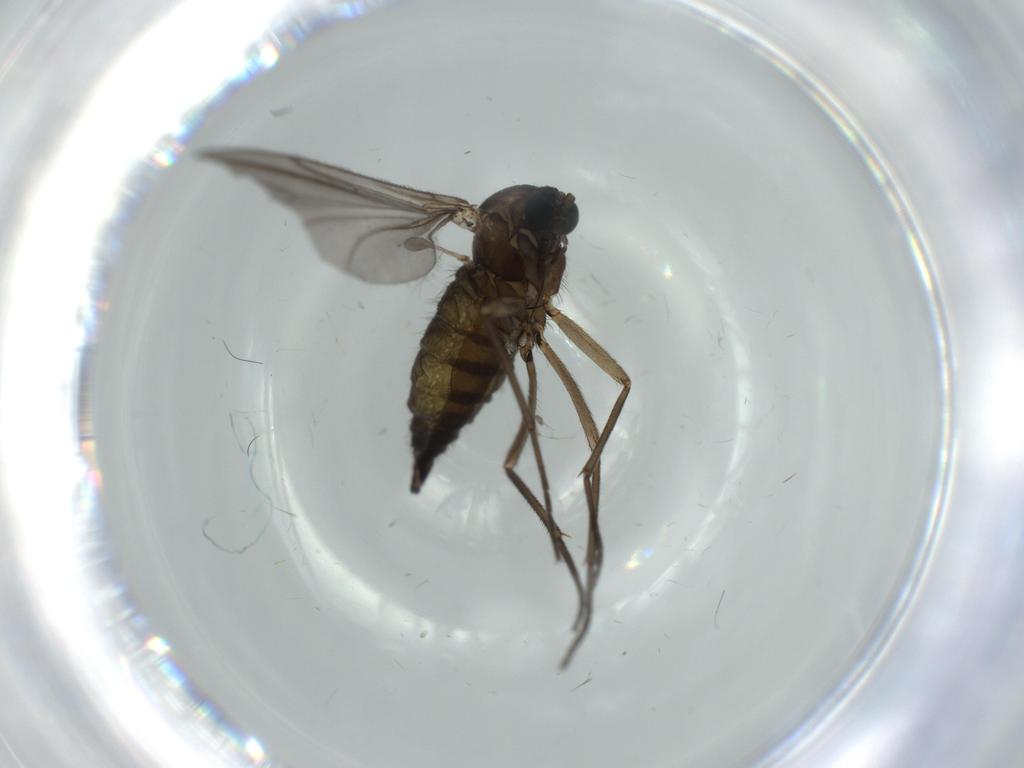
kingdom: Animalia
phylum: Arthropoda
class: Insecta
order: Diptera
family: Sciaridae
